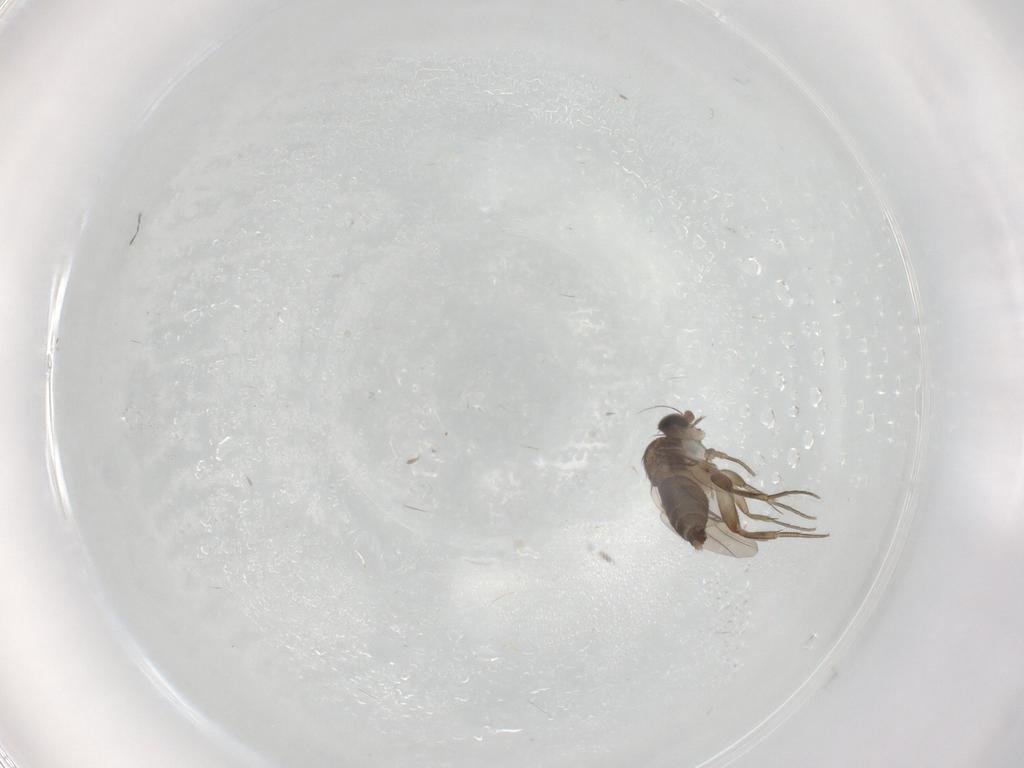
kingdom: Animalia
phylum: Arthropoda
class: Insecta
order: Diptera
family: Phoridae
